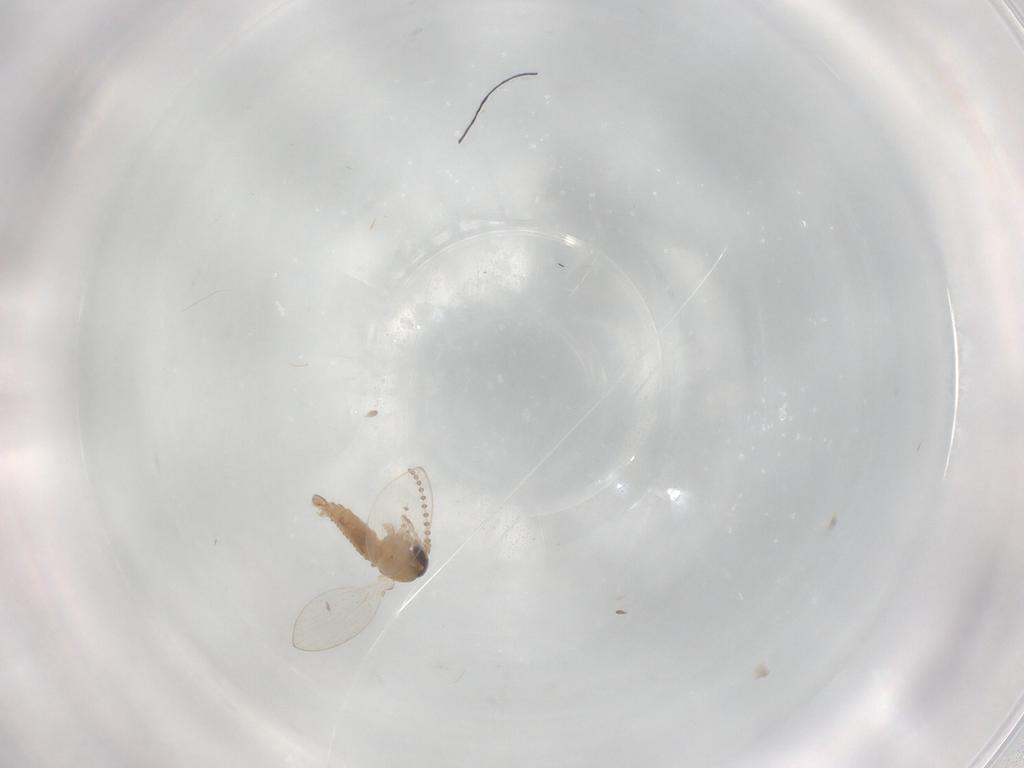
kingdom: Animalia
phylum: Arthropoda
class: Insecta
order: Diptera
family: Psychodidae
